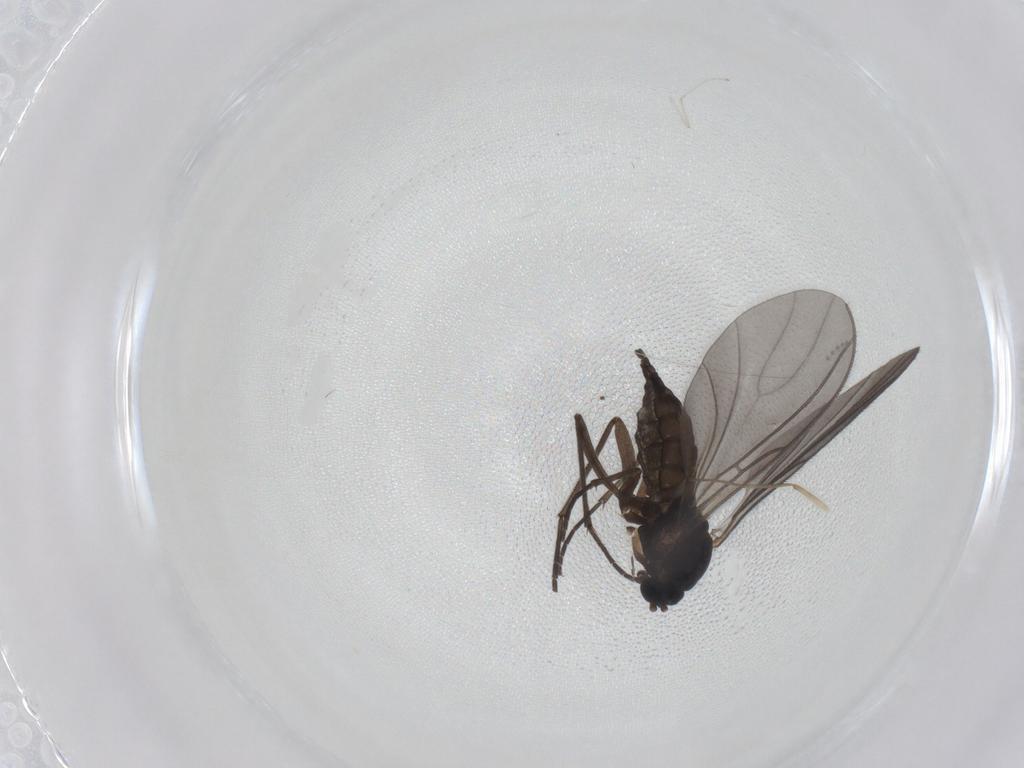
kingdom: Animalia
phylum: Arthropoda
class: Insecta
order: Diptera
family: Sciaridae
